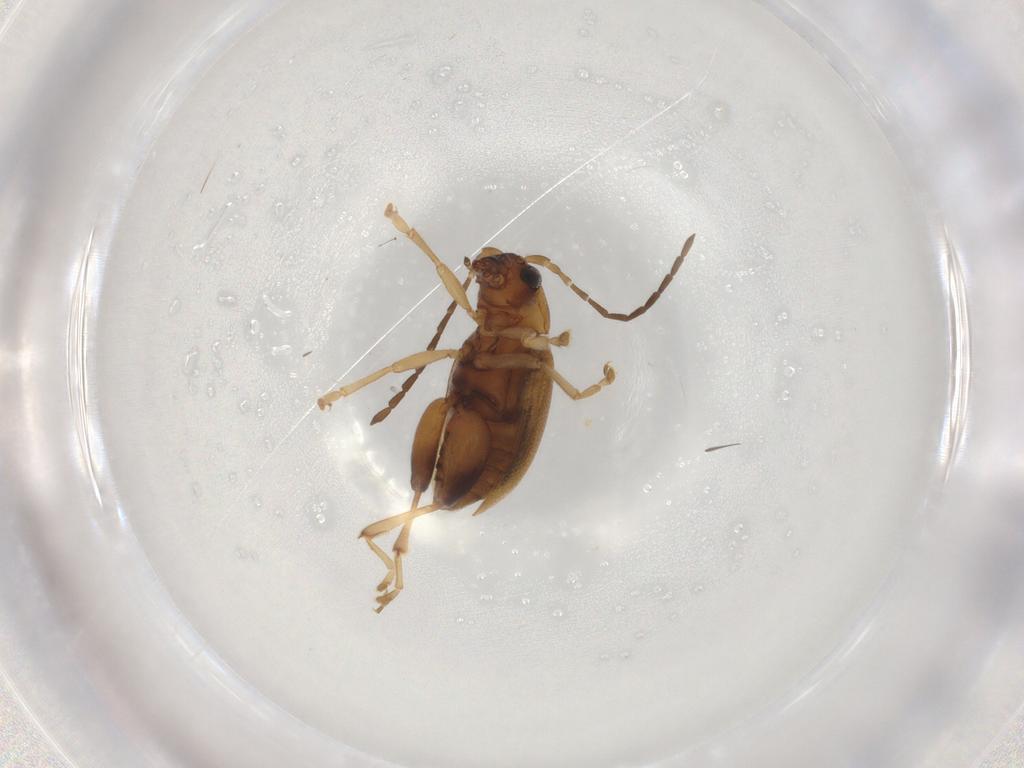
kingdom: Animalia
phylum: Arthropoda
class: Insecta
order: Coleoptera
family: Chrysomelidae
